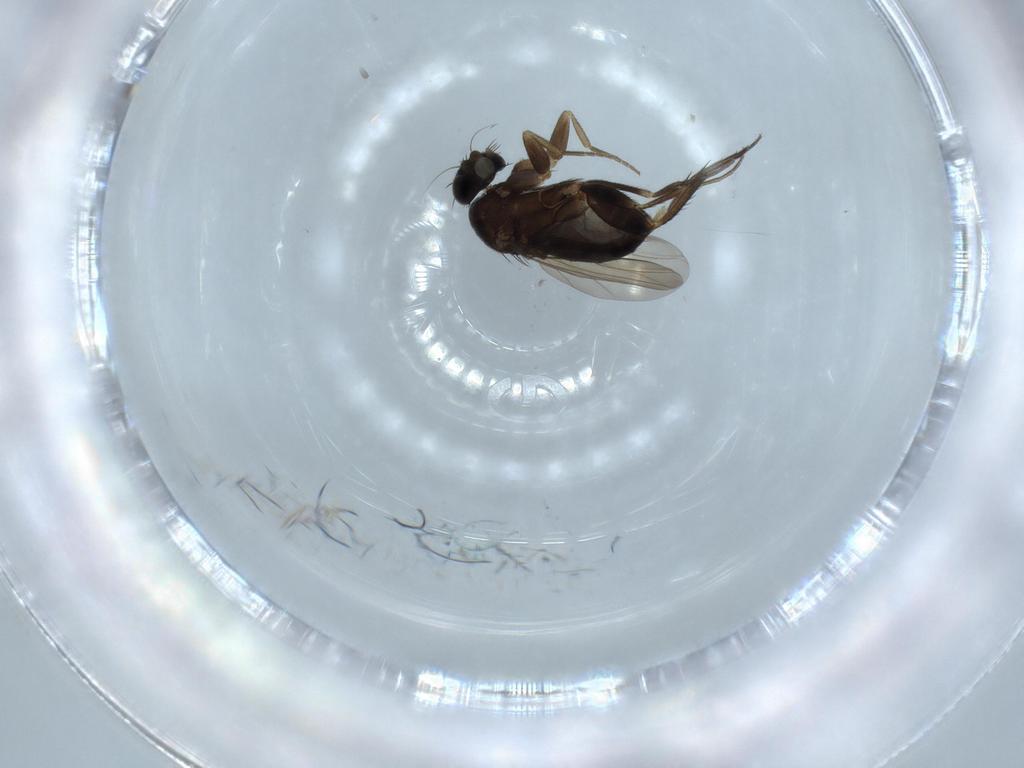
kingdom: Animalia
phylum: Arthropoda
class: Insecta
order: Diptera
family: Phoridae
